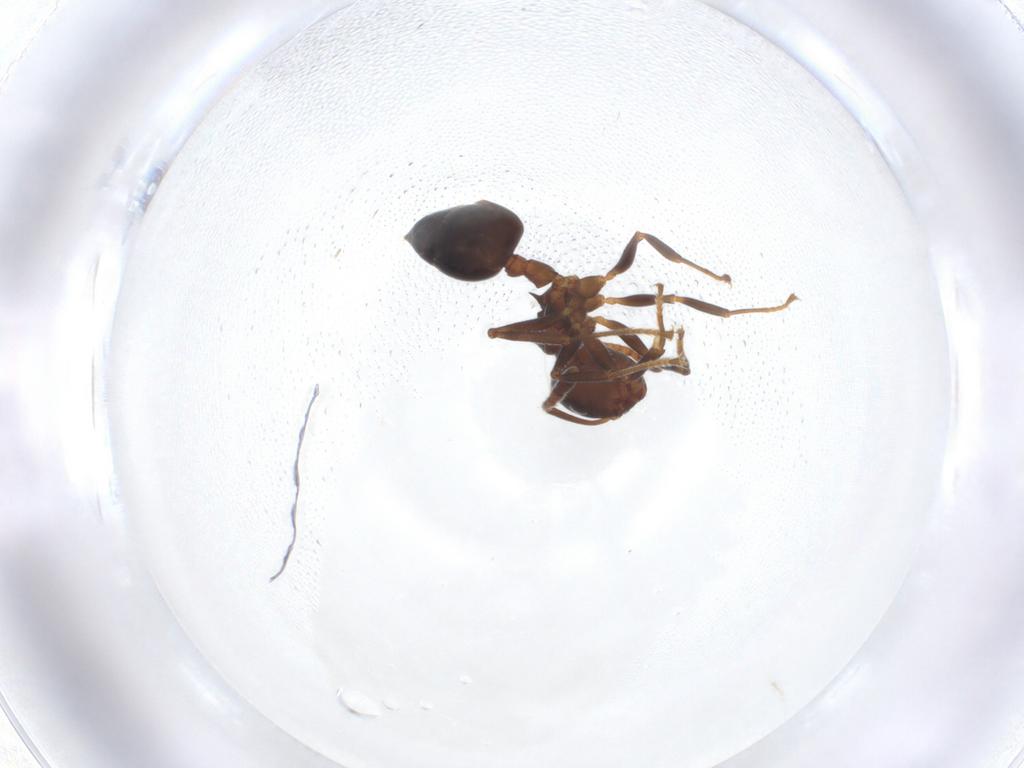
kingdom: Animalia
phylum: Arthropoda
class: Insecta
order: Hymenoptera
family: Formicidae
